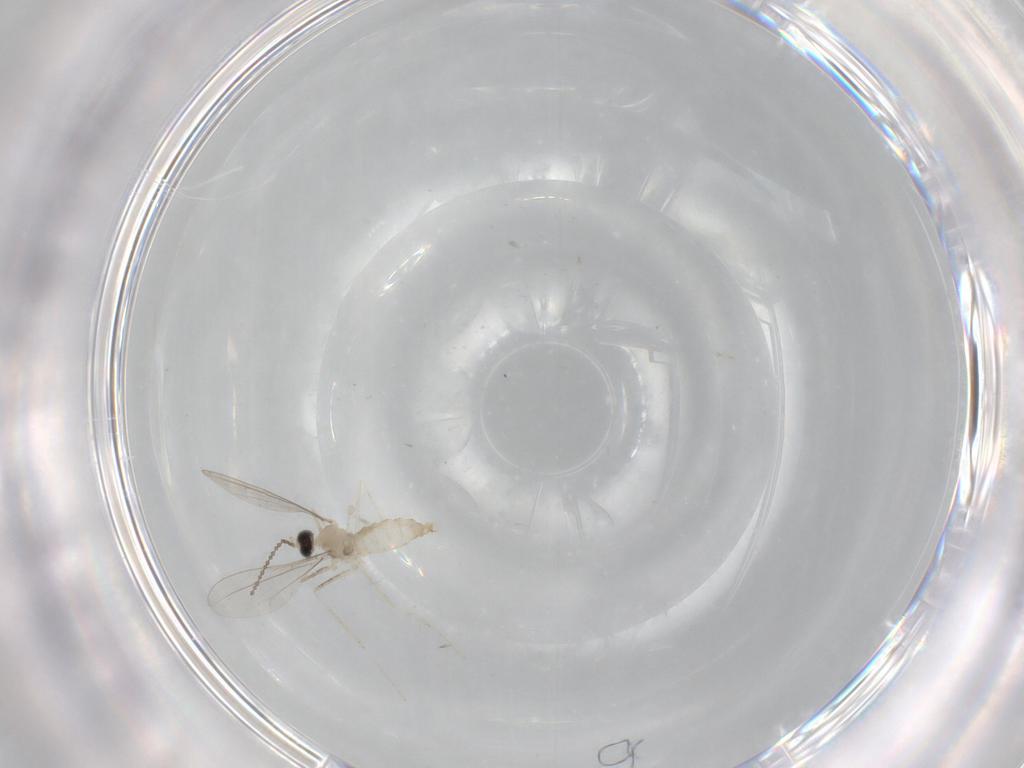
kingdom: Animalia
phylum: Arthropoda
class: Insecta
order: Diptera
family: Cecidomyiidae
